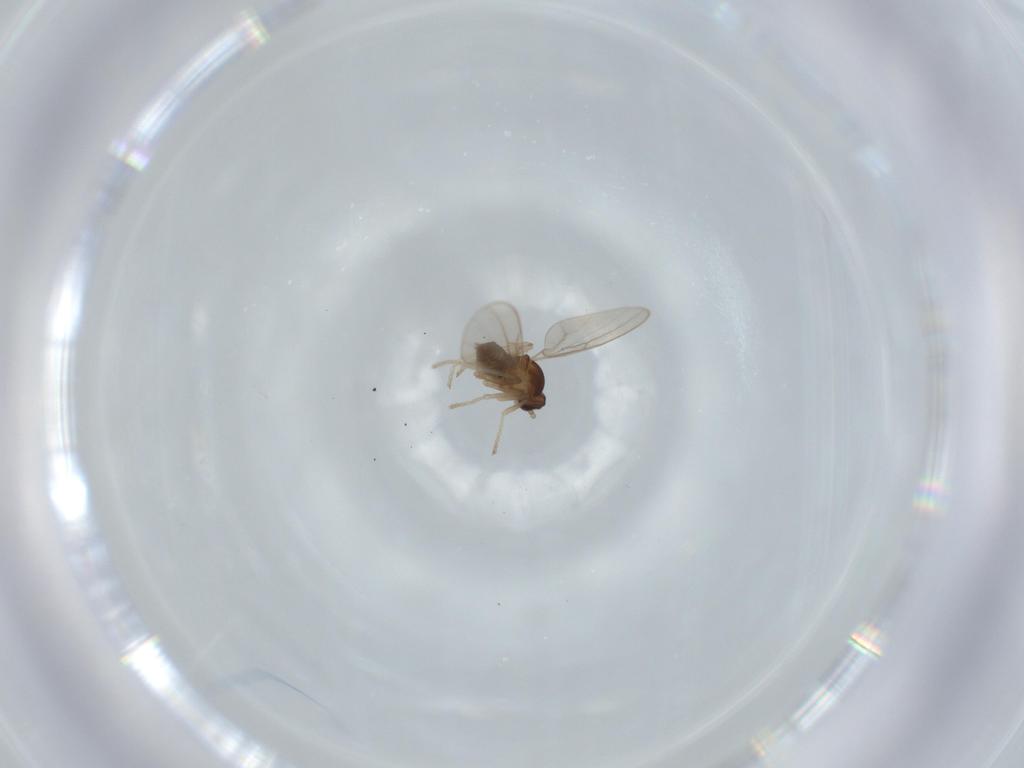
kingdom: Animalia
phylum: Arthropoda
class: Insecta
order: Diptera
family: Cecidomyiidae
